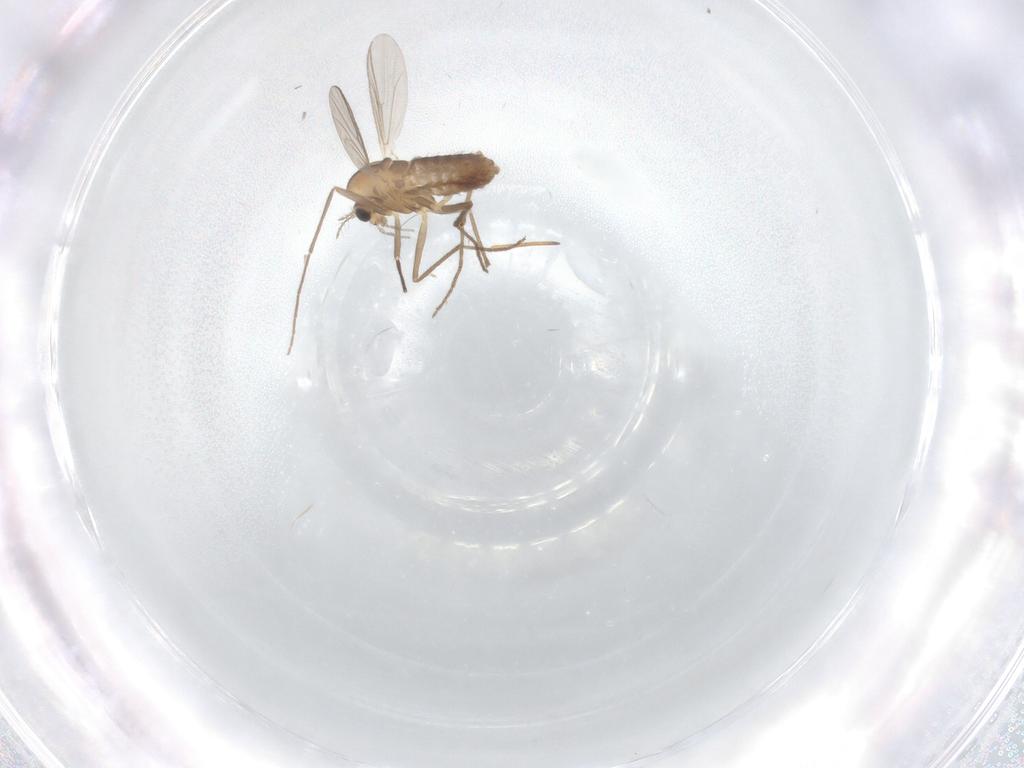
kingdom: Animalia
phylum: Arthropoda
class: Insecta
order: Diptera
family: Chironomidae
